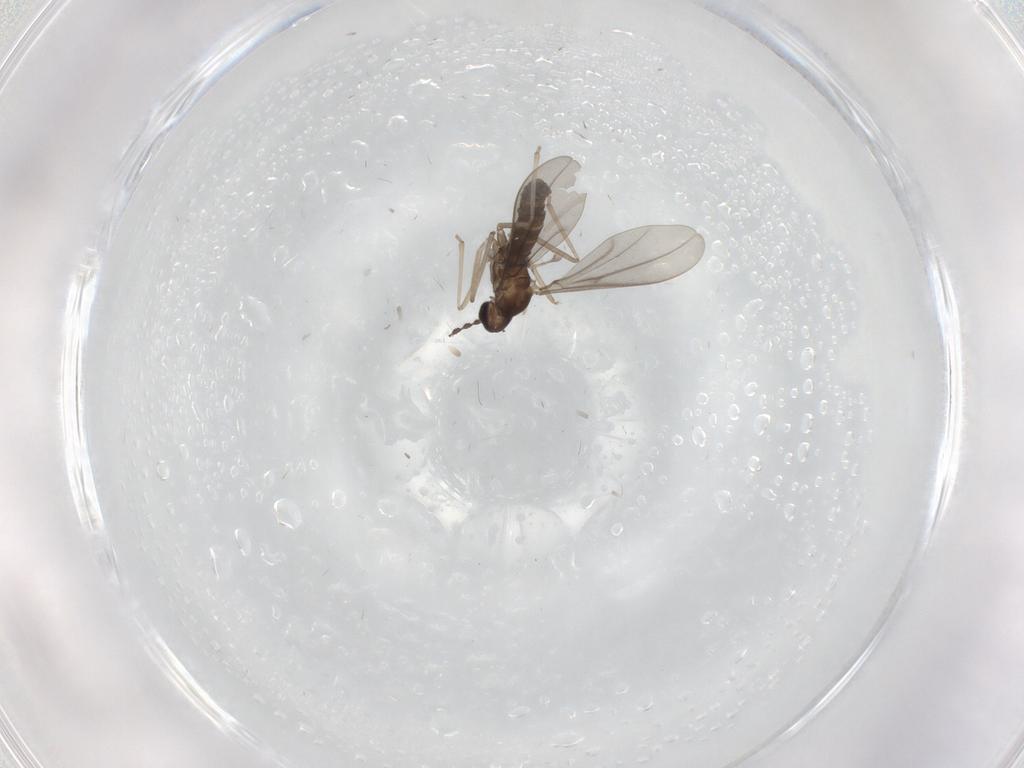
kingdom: Animalia
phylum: Arthropoda
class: Insecta
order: Diptera
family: Cecidomyiidae
